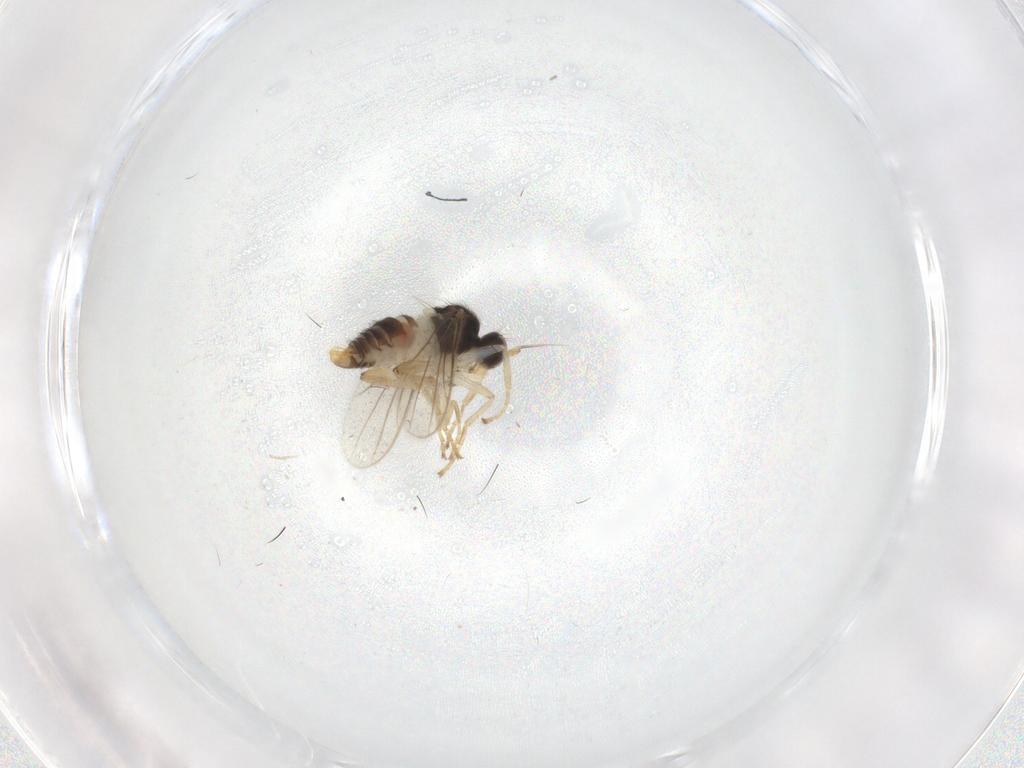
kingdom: Animalia
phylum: Arthropoda
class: Insecta
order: Diptera
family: Hybotidae
